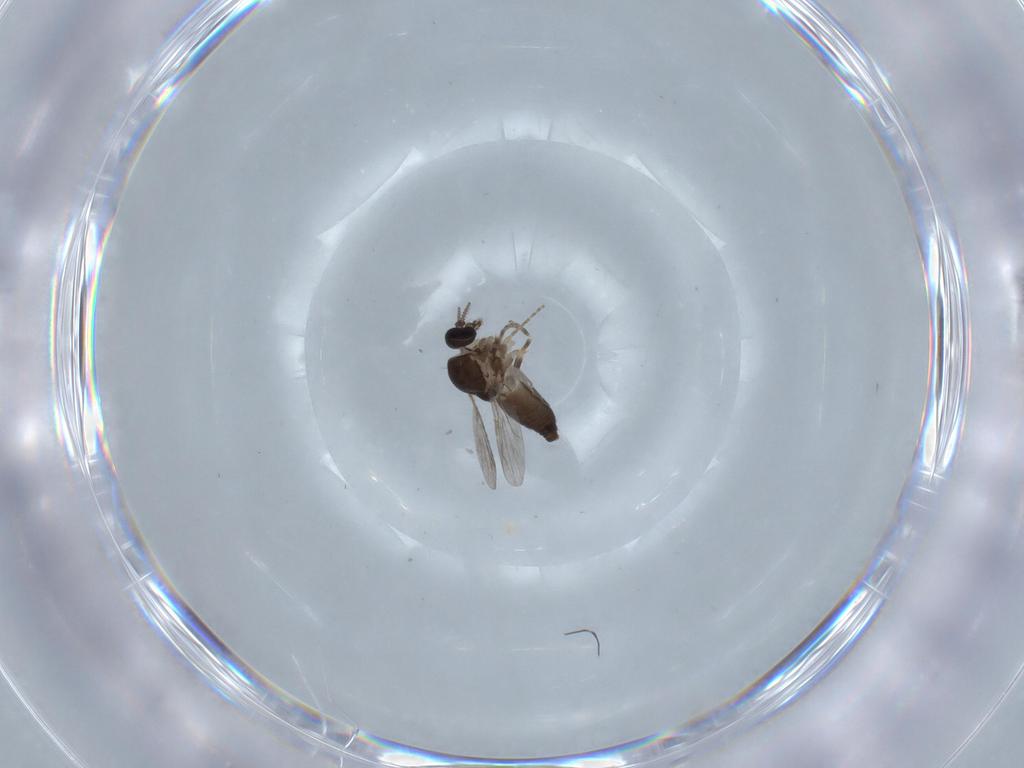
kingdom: Animalia
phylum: Arthropoda
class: Insecta
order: Diptera
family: Ceratopogonidae
